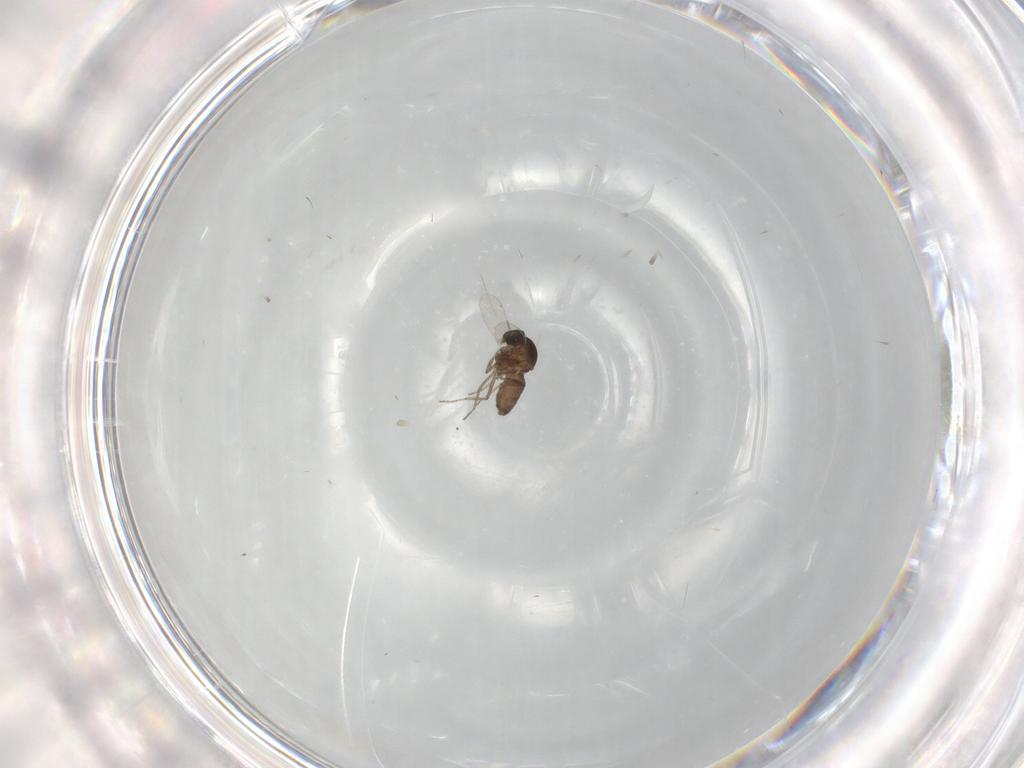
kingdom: Animalia
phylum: Arthropoda
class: Insecta
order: Diptera
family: Ceratopogonidae
